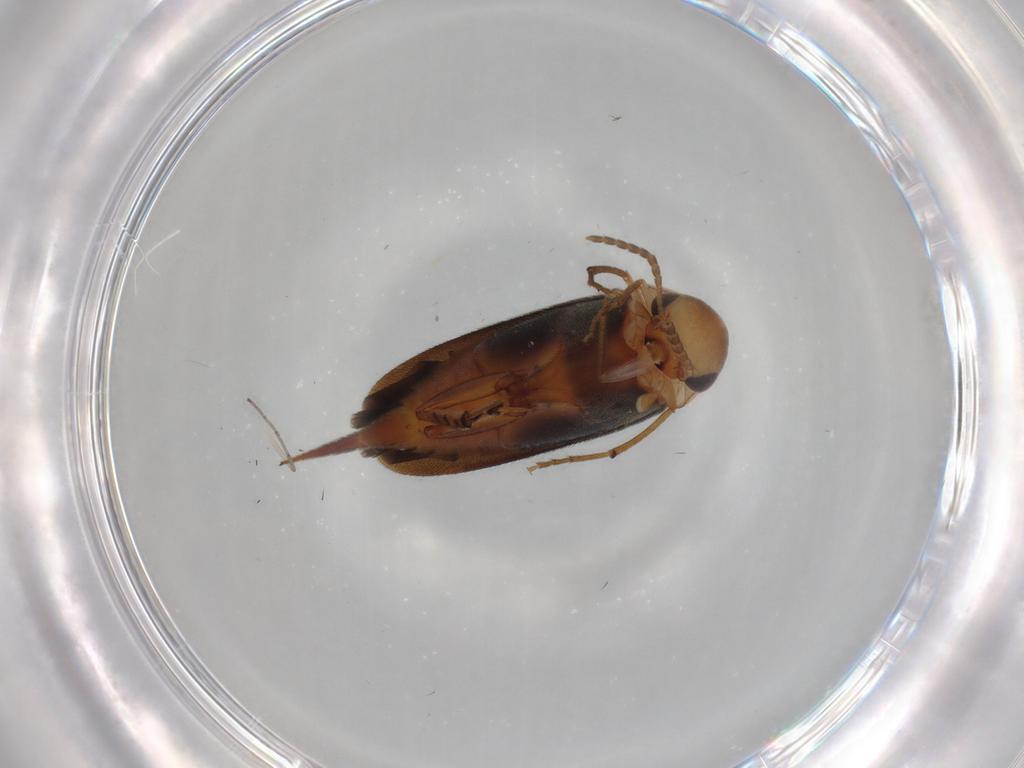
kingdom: Animalia
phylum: Arthropoda
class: Insecta
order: Coleoptera
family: Mordellidae
